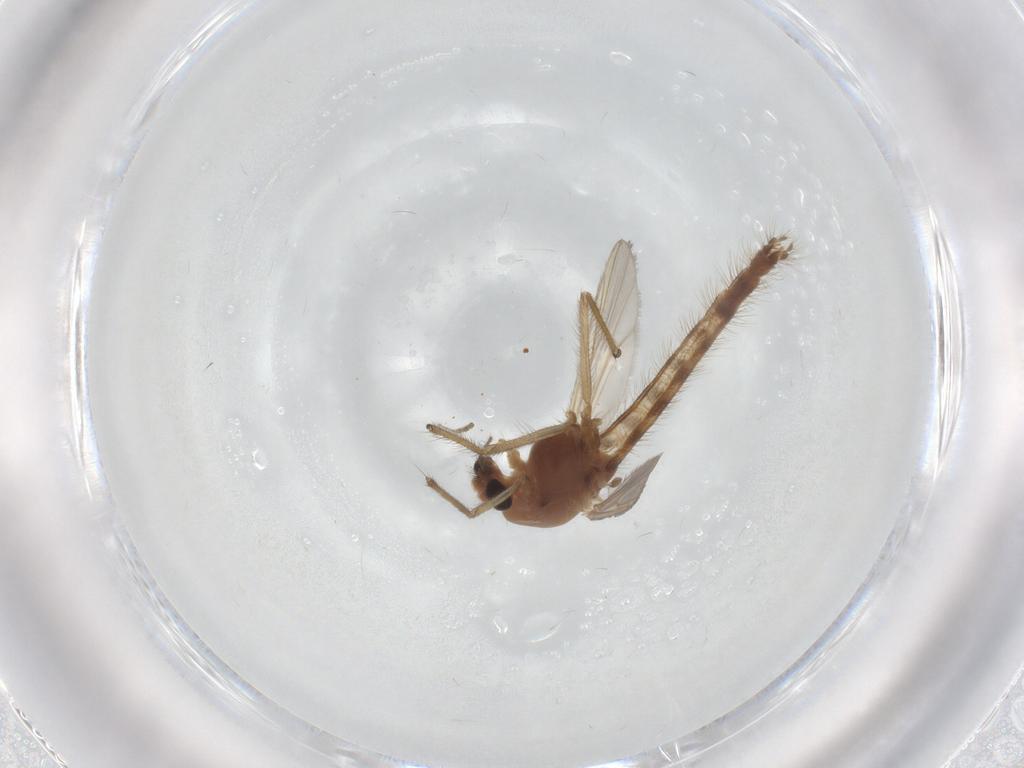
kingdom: Animalia
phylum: Arthropoda
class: Insecta
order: Diptera
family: Chironomidae
